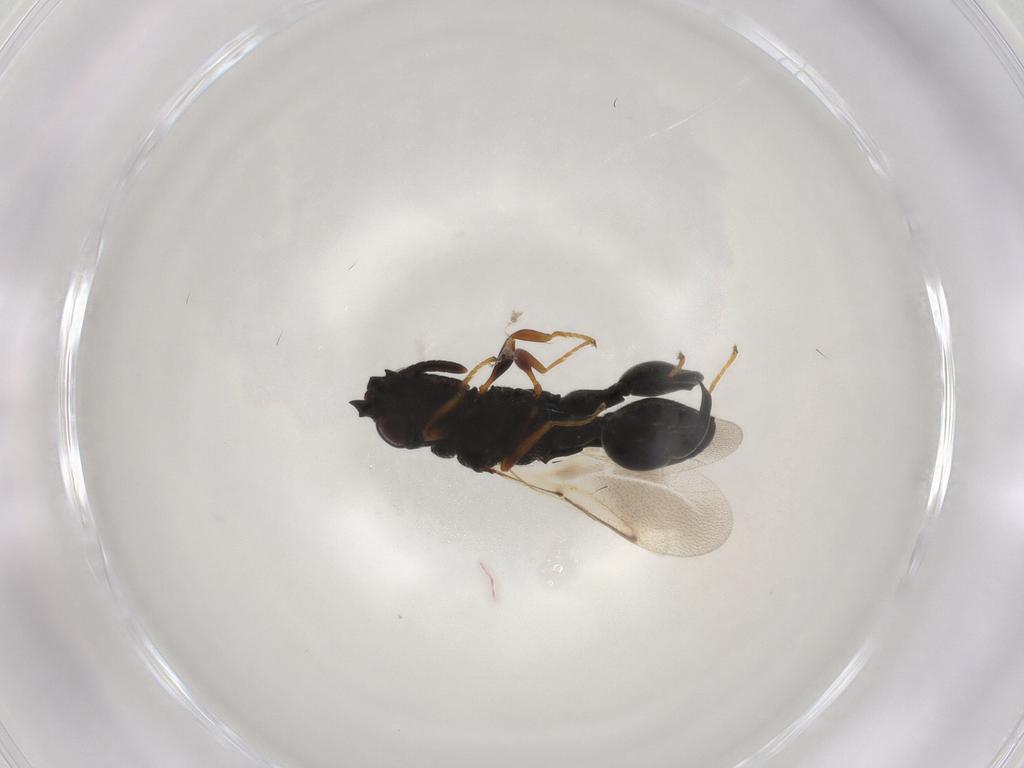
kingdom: Animalia
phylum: Arthropoda
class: Insecta
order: Hymenoptera
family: Chalcididae
